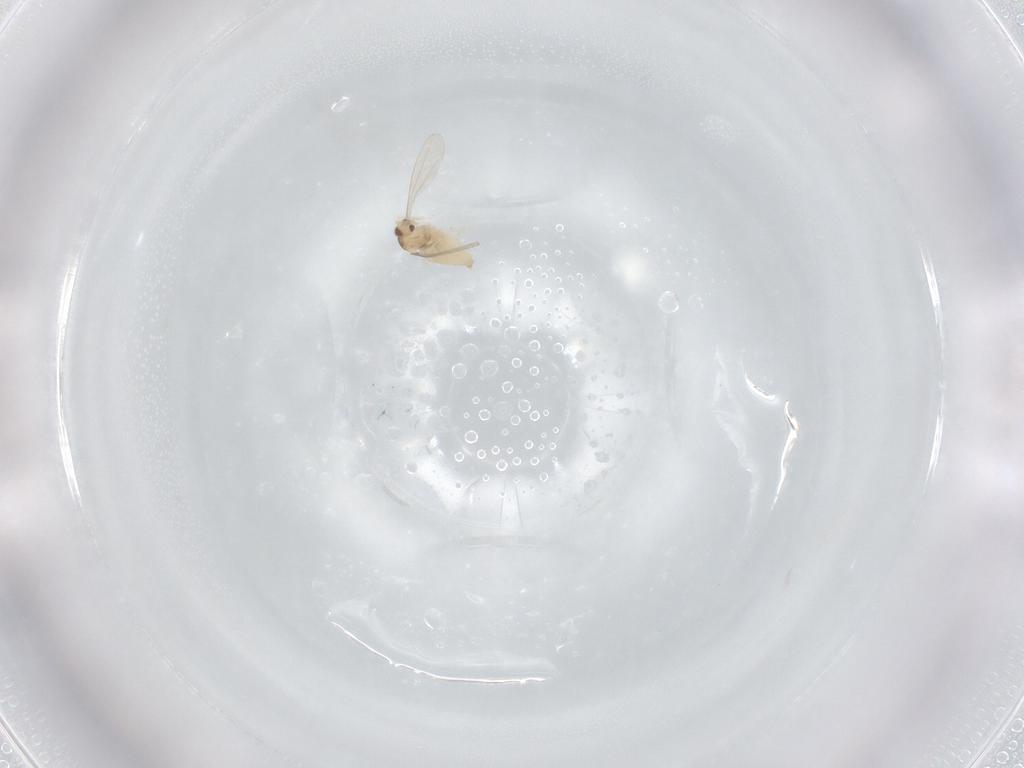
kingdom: Animalia
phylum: Arthropoda
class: Insecta
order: Diptera
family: Cecidomyiidae
